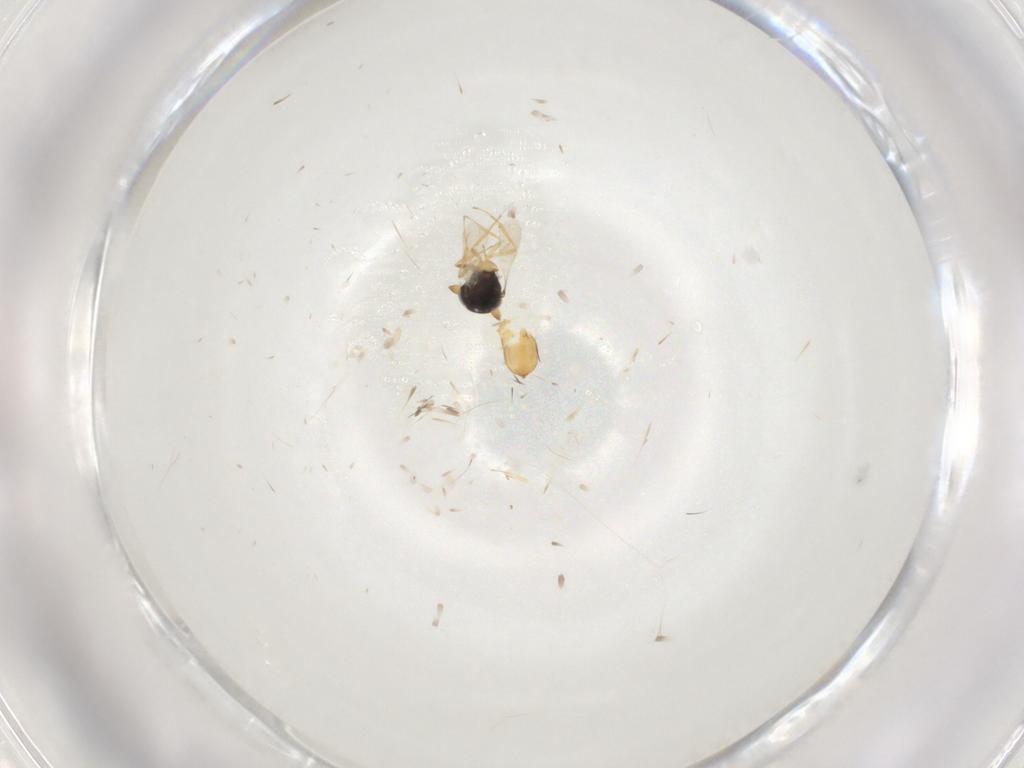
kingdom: Animalia
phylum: Arthropoda
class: Insecta
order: Hymenoptera
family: Scelionidae
